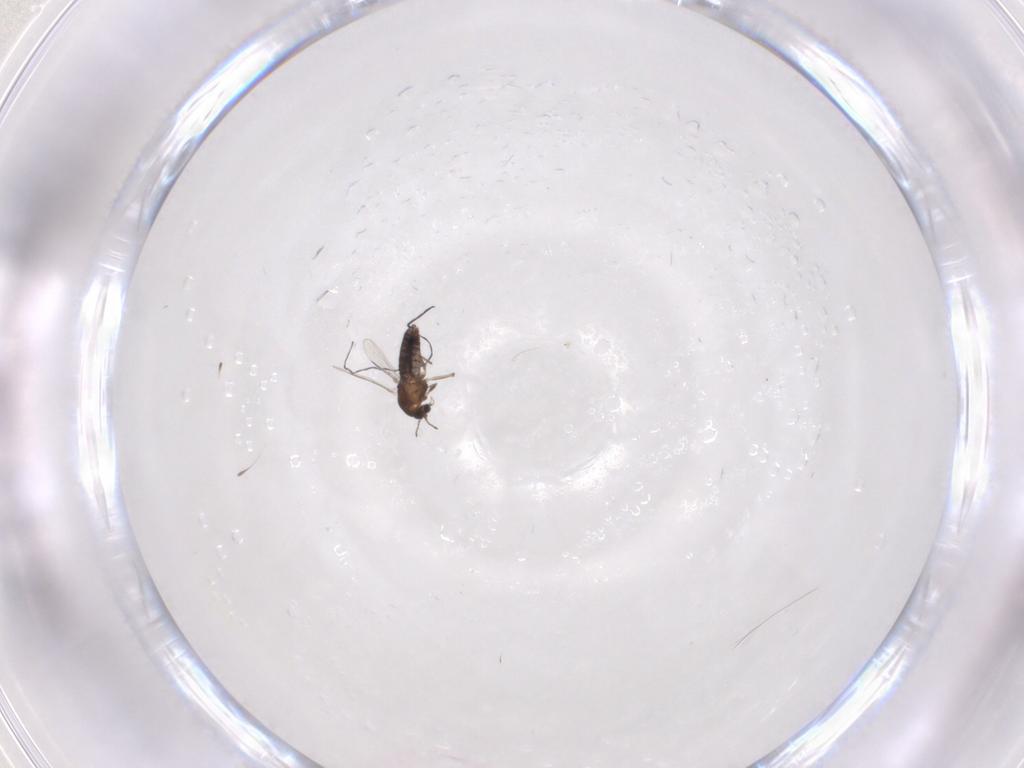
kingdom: Animalia
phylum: Arthropoda
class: Insecta
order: Diptera
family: Chironomidae
